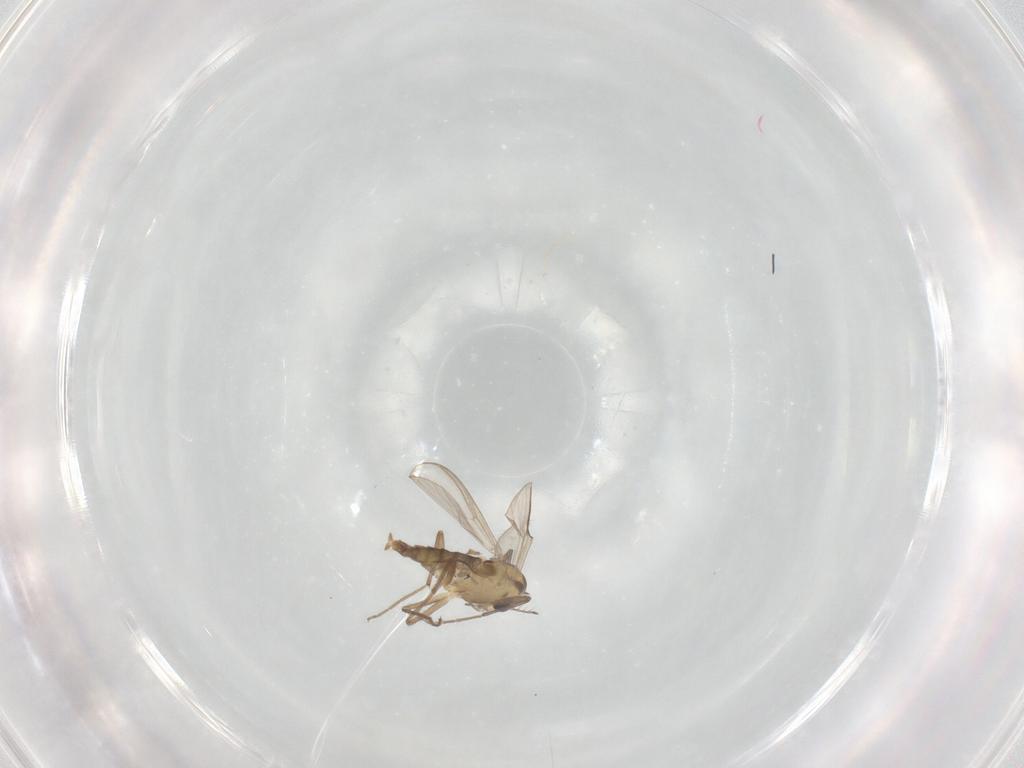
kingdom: Animalia
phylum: Arthropoda
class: Insecta
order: Diptera
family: Chironomidae
